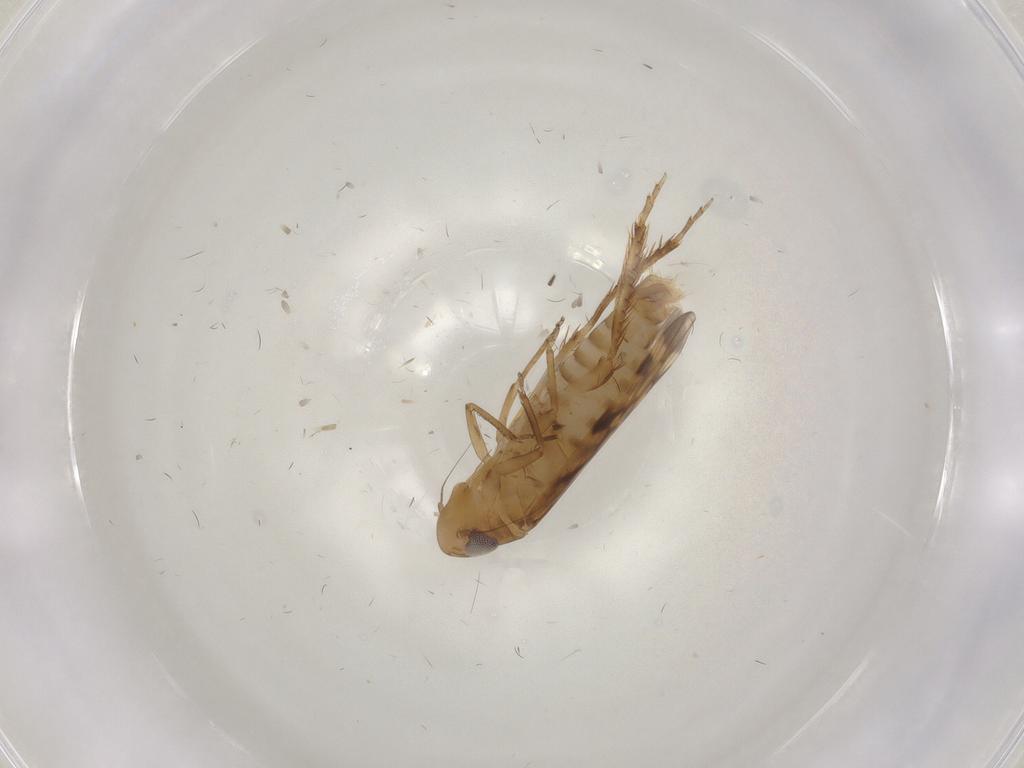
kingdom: Animalia
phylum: Arthropoda
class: Insecta
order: Hemiptera
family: Cicadellidae
